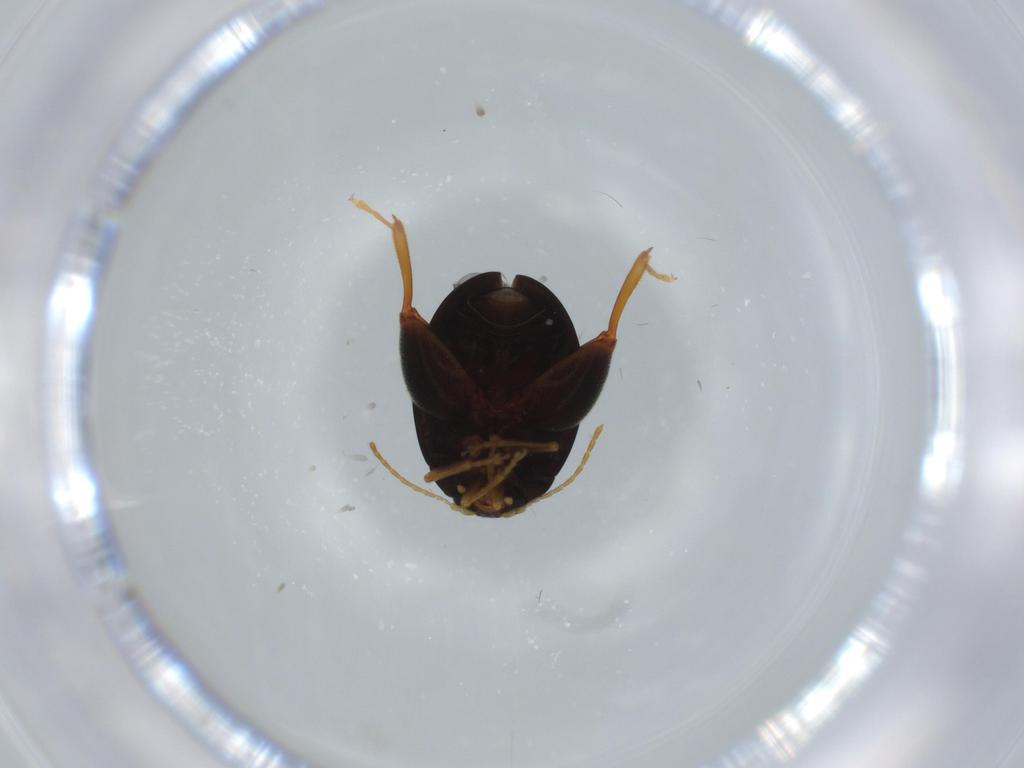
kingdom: Animalia
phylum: Arthropoda
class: Insecta
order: Coleoptera
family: Chrysomelidae
